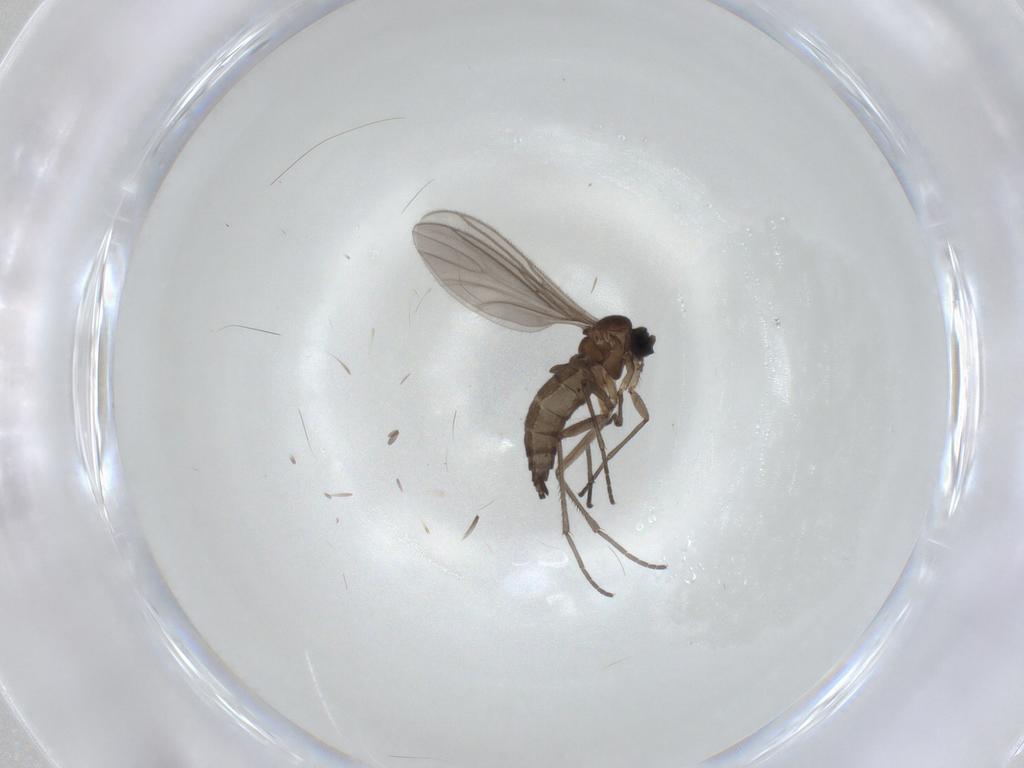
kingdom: Animalia
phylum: Arthropoda
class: Insecta
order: Diptera
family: Sciaridae
